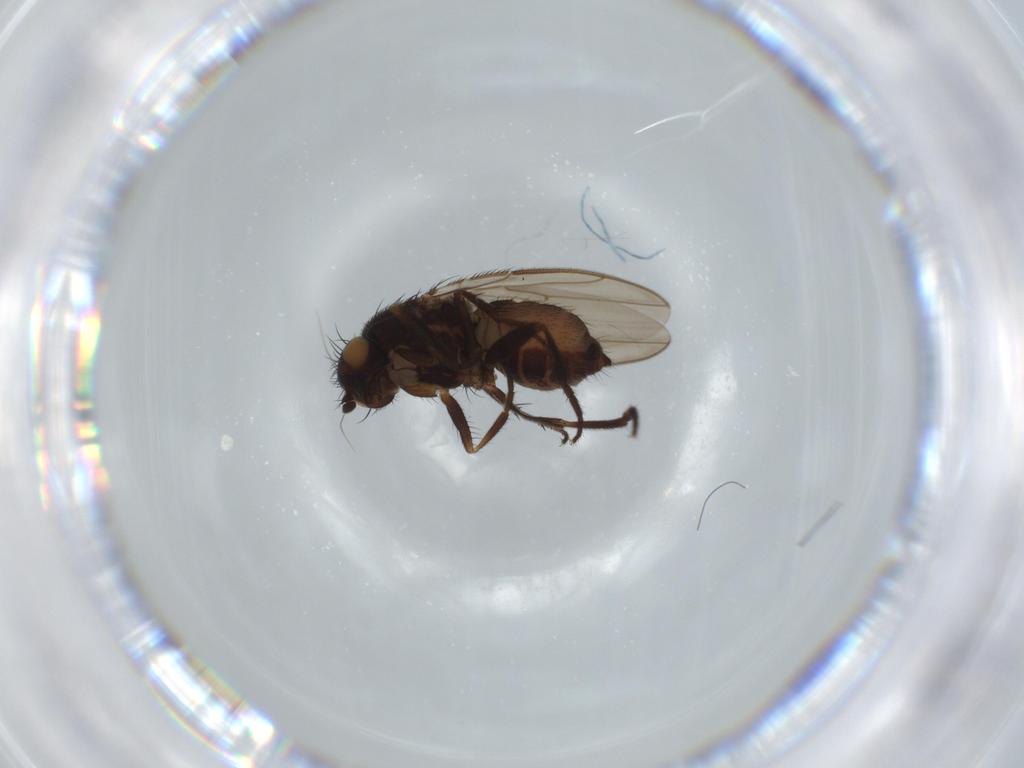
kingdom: Animalia
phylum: Arthropoda
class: Insecta
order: Diptera
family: Sphaeroceridae
